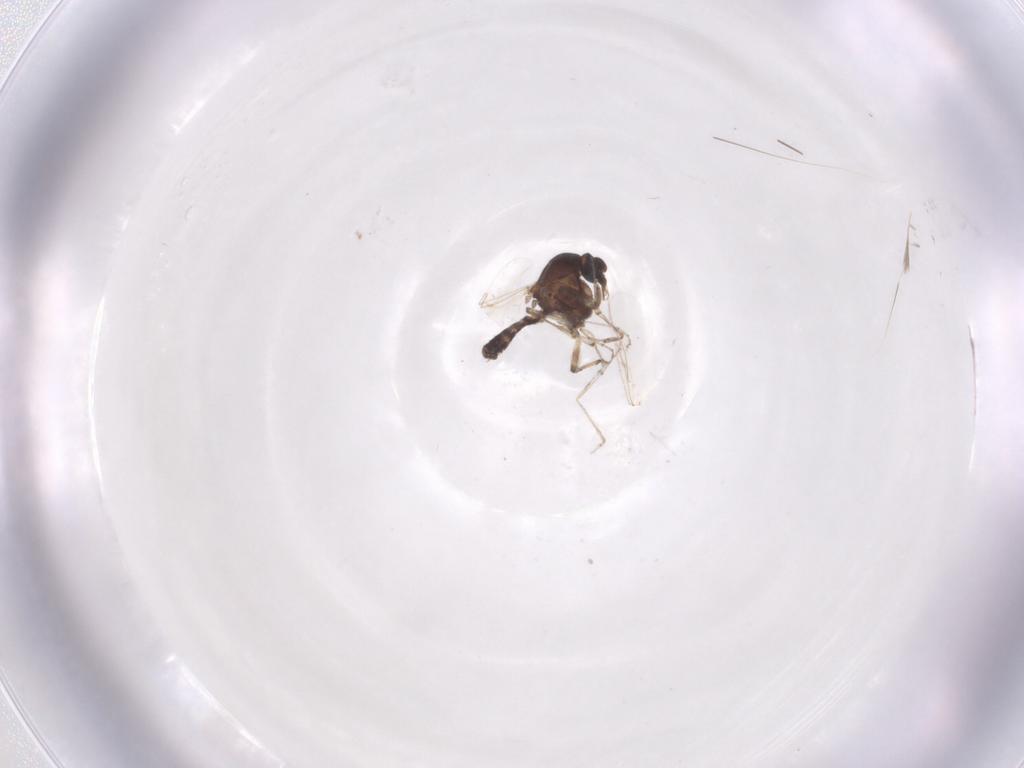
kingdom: Animalia
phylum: Arthropoda
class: Insecta
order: Diptera
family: Ceratopogonidae
